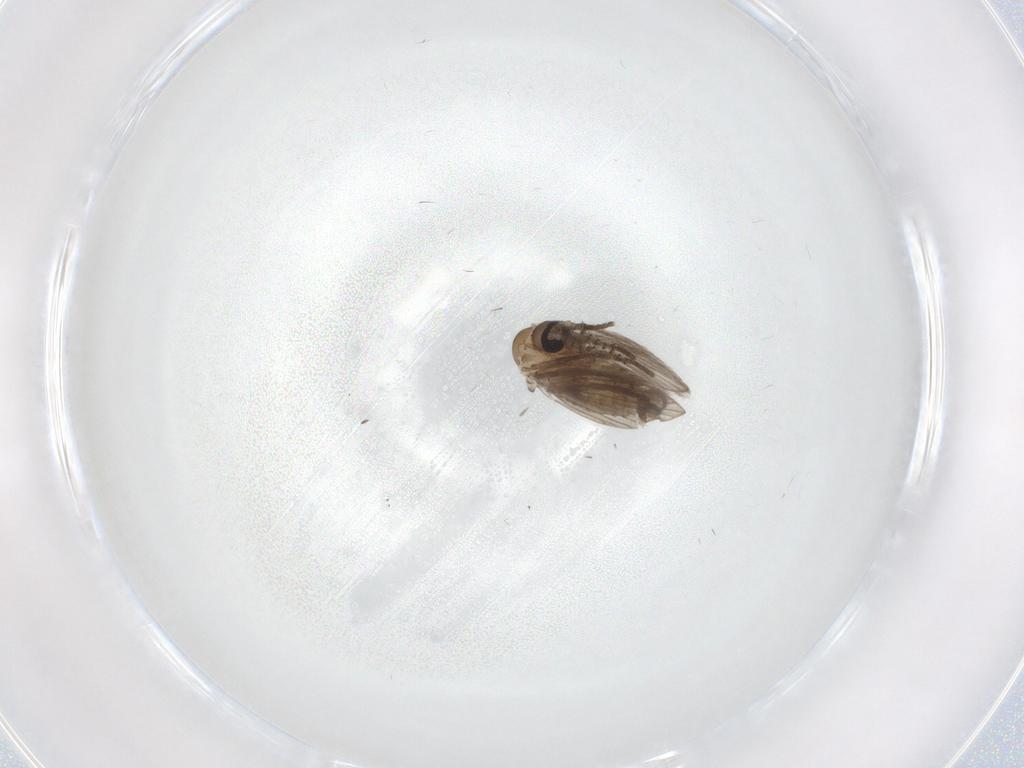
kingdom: Animalia
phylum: Arthropoda
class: Insecta
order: Diptera
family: Psychodidae
